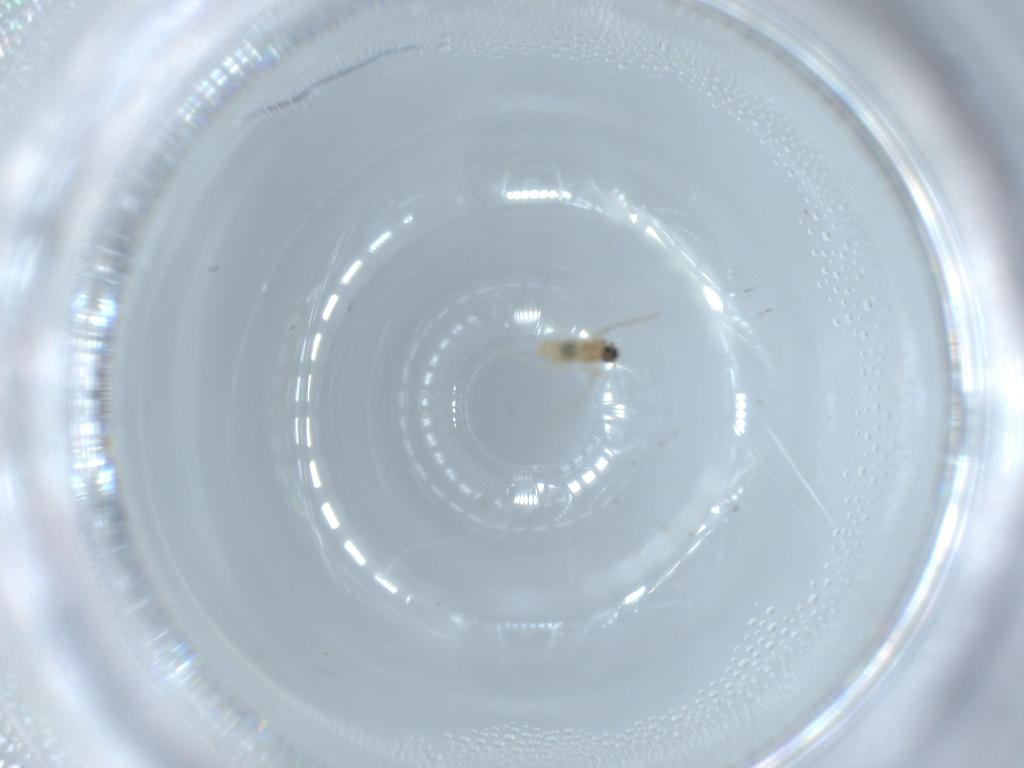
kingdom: Animalia
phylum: Arthropoda
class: Insecta
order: Diptera
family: Cecidomyiidae
